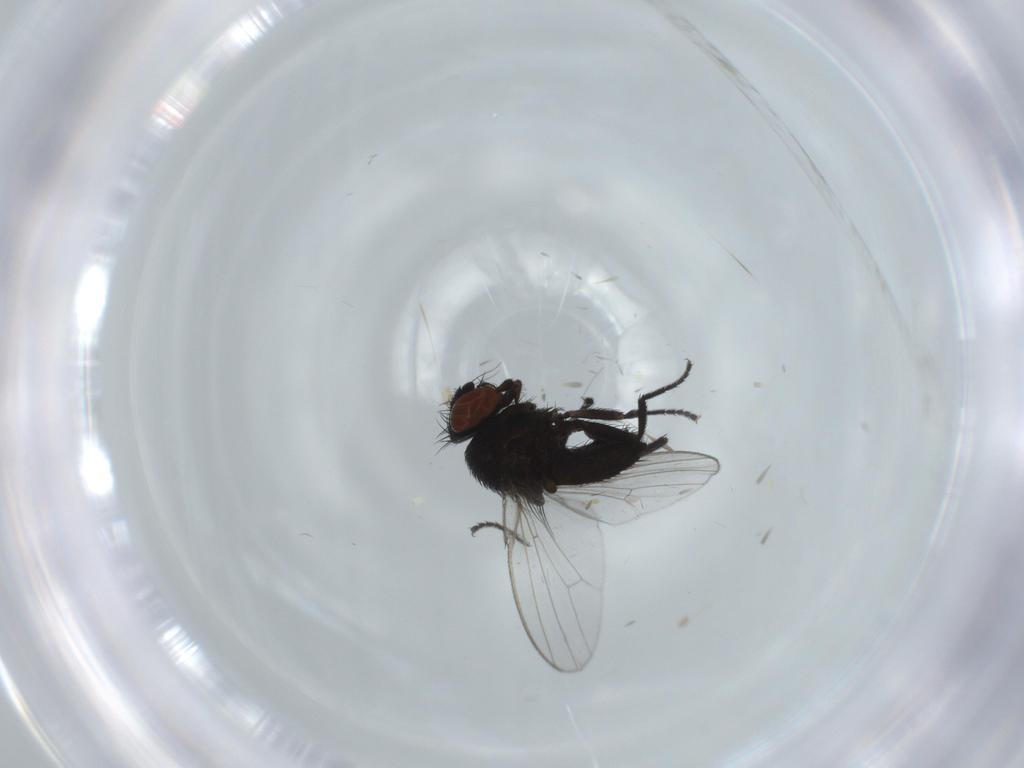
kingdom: Animalia
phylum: Arthropoda
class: Insecta
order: Diptera
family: Milichiidae
